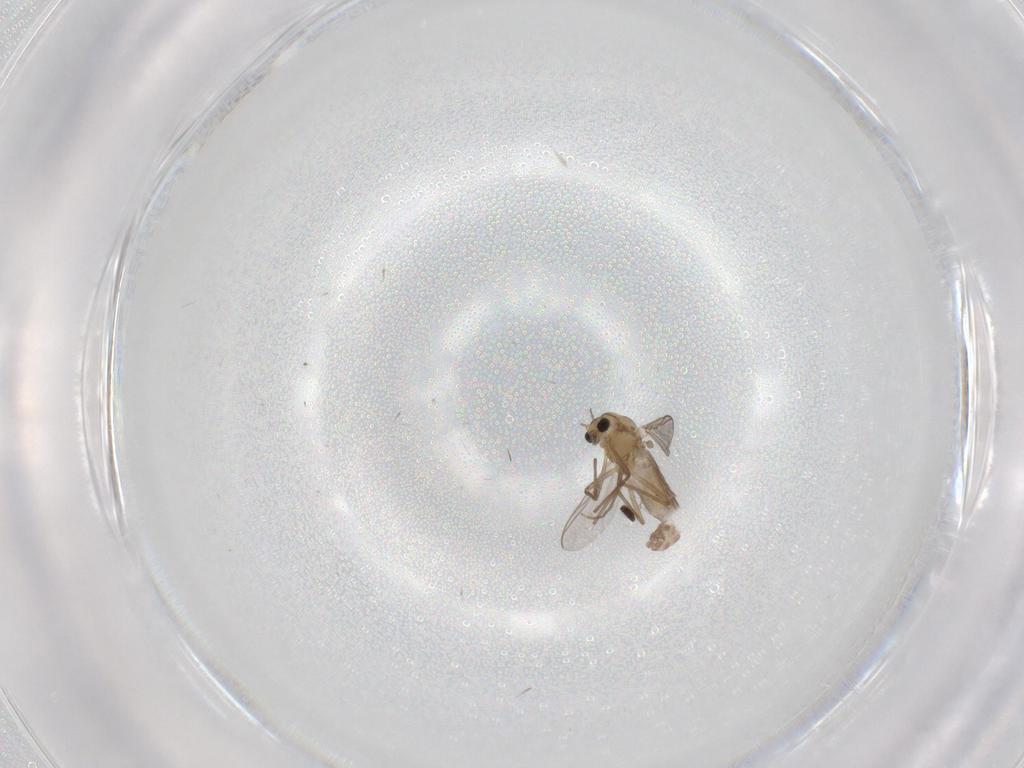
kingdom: Animalia
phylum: Arthropoda
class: Insecta
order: Diptera
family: Chironomidae
